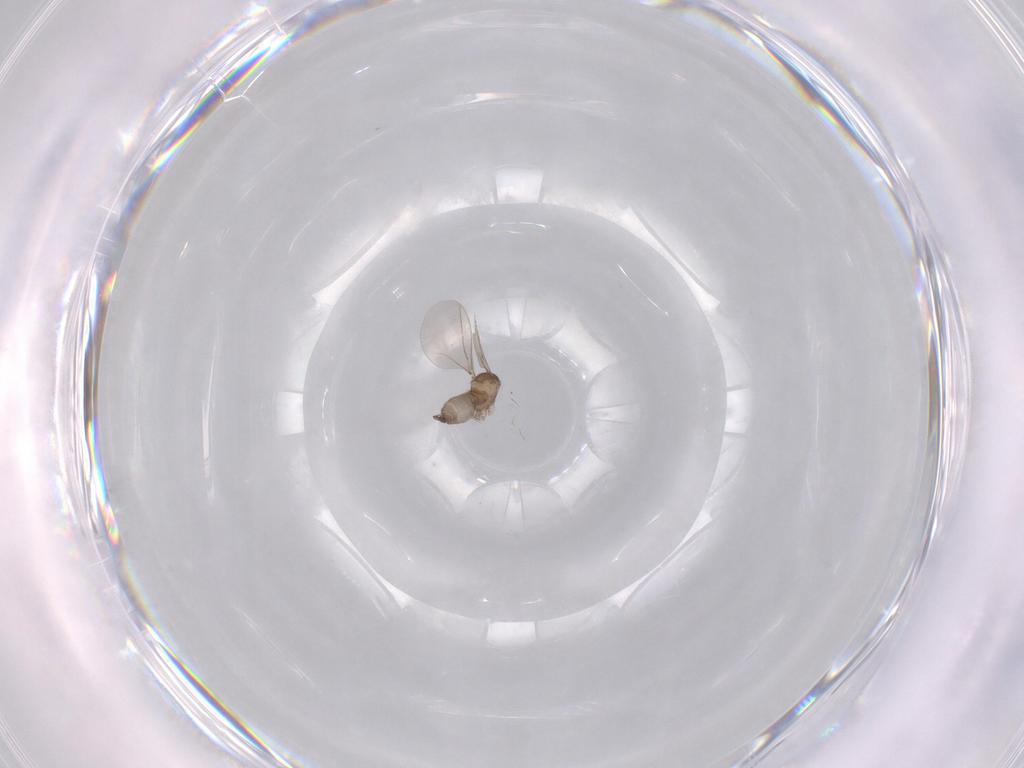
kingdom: Animalia
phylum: Arthropoda
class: Insecta
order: Diptera
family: Cecidomyiidae
